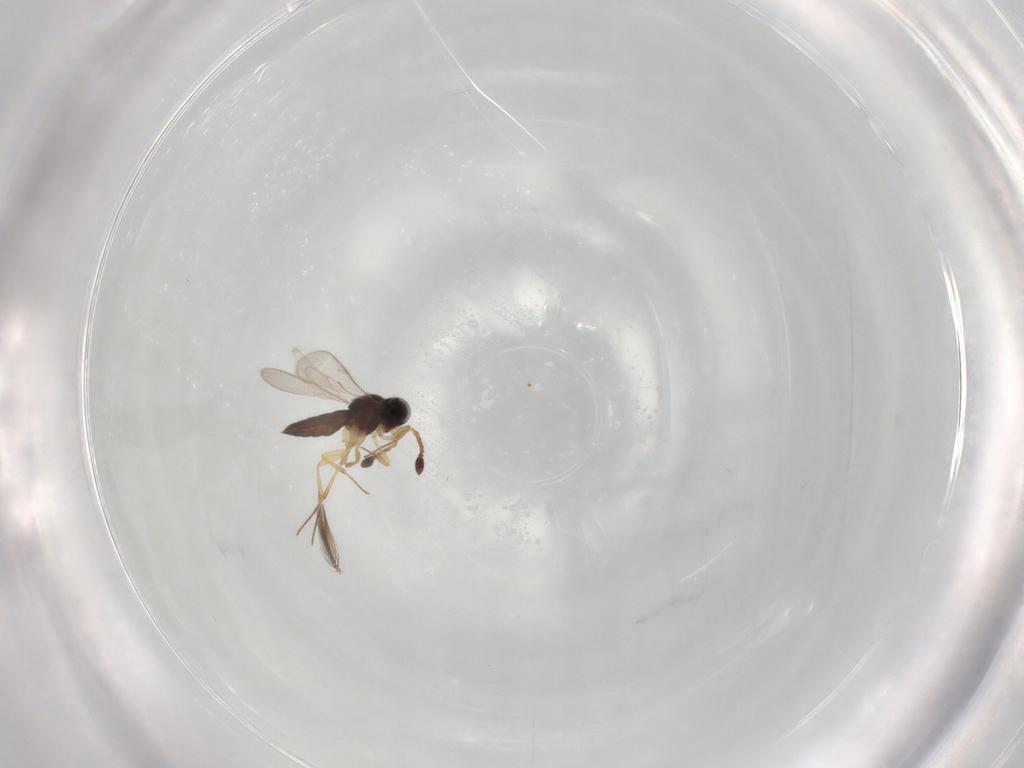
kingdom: Animalia
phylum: Arthropoda
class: Insecta
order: Hymenoptera
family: Scelionidae
